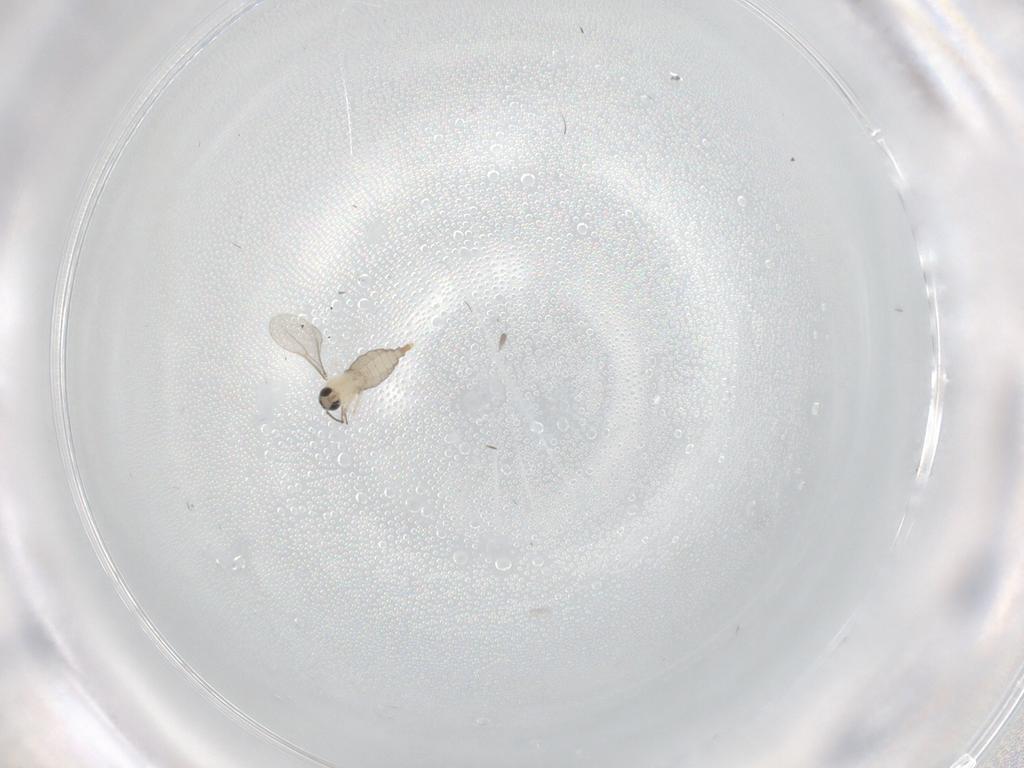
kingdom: Animalia
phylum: Arthropoda
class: Insecta
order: Diptera
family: Ceratopogonidae
